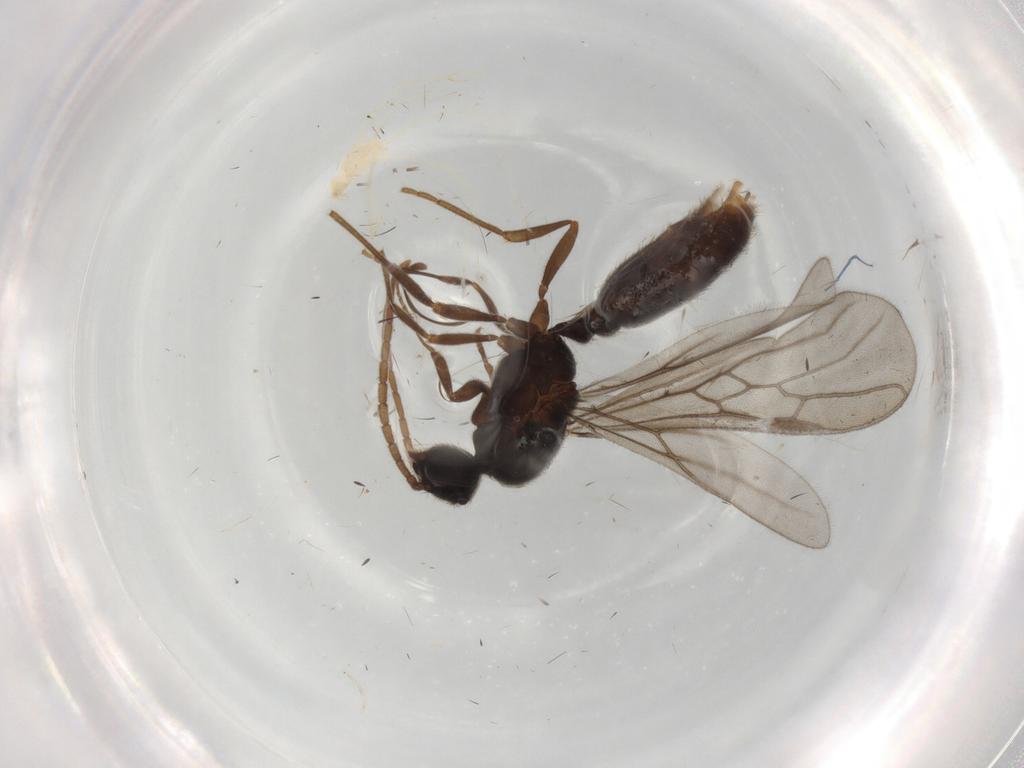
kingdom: Animalia
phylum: Arthropoda
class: Insecta
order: Hymenoptera
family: Formicidae
